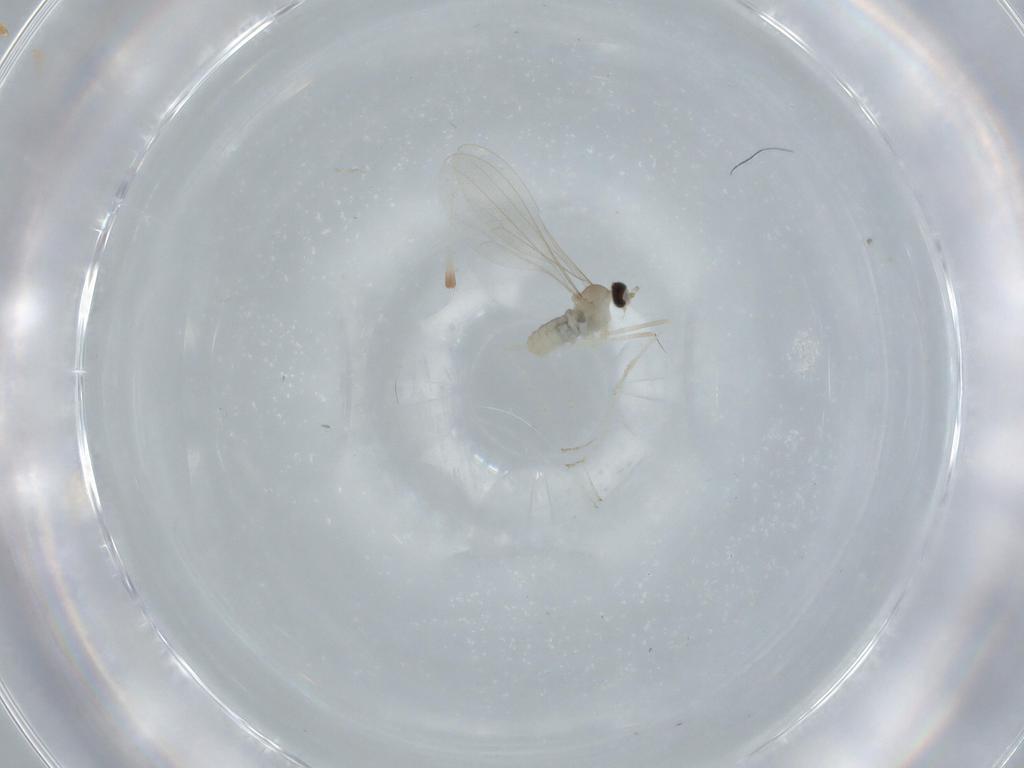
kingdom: Animalia
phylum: Arthropoda
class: Insecta
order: Diptera
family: Cecidomyiidae
